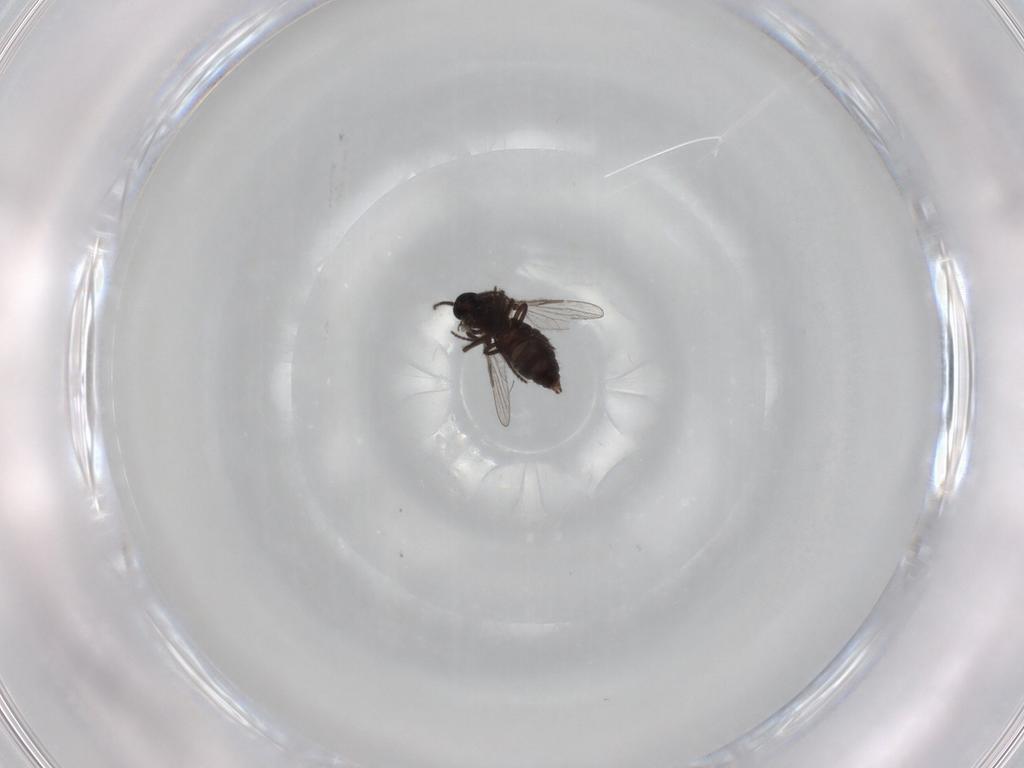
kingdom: Animalia
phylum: Arthropoda
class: Insecta
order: Diptera
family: Ceratopogonidae
